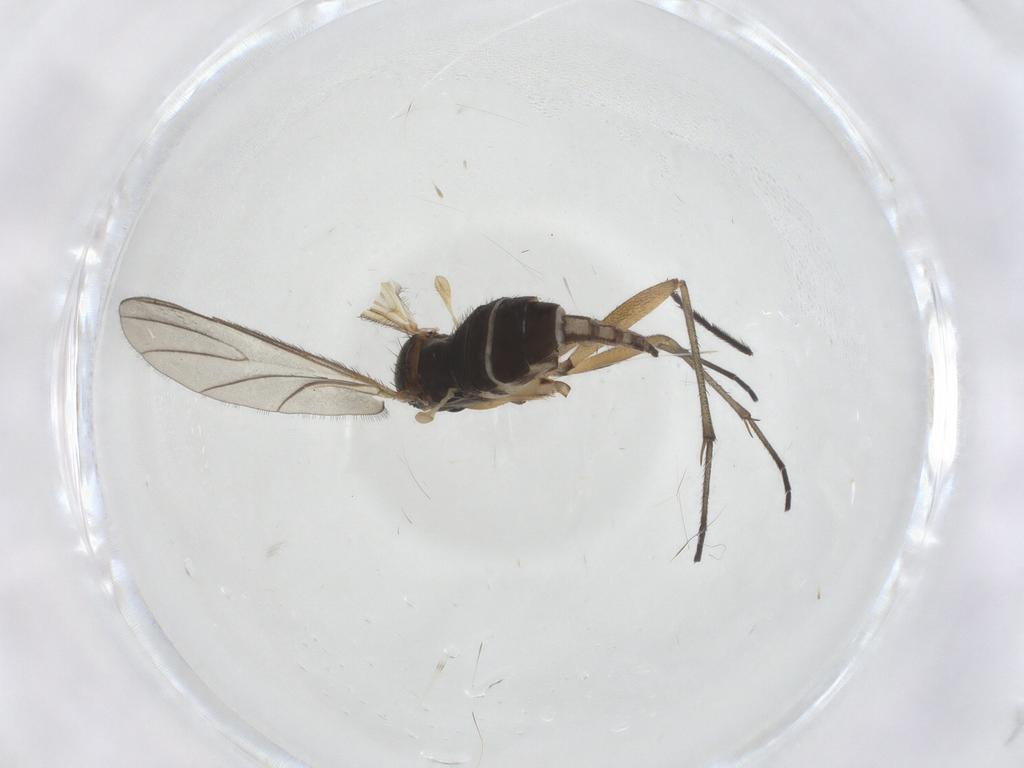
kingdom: Animalia
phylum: Arthropoda
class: Insecta
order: Diptera
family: Sciaridae
